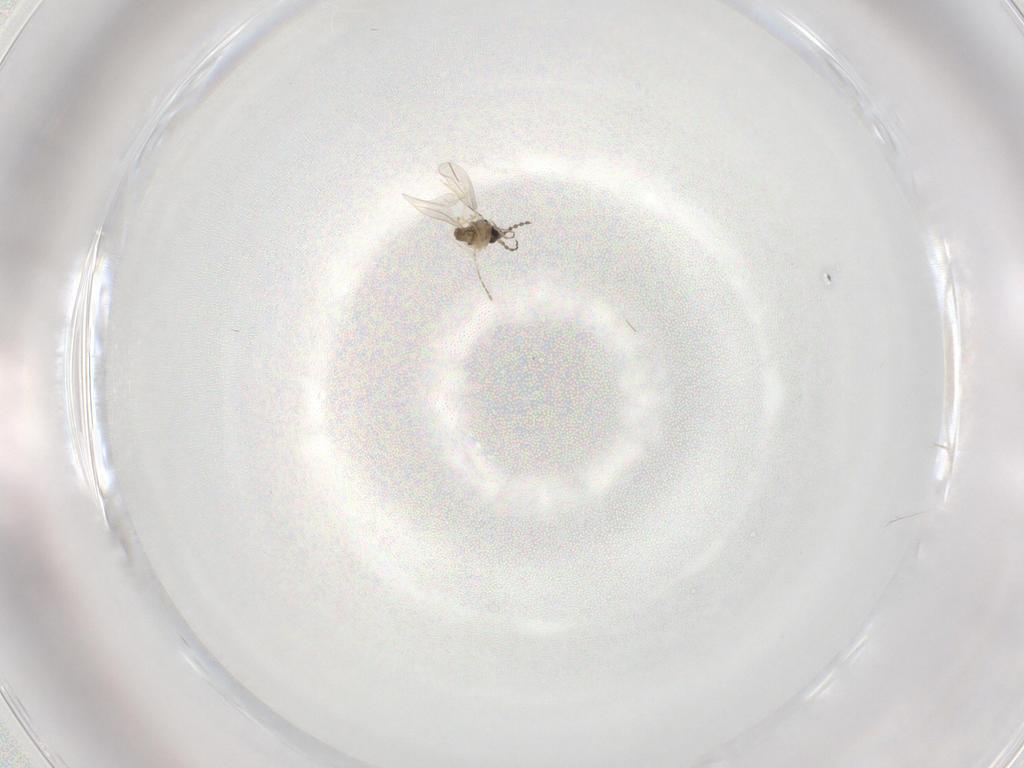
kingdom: Animalia
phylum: Arthropoda
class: Insecta
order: Diptera
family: Cecidomyiidae
